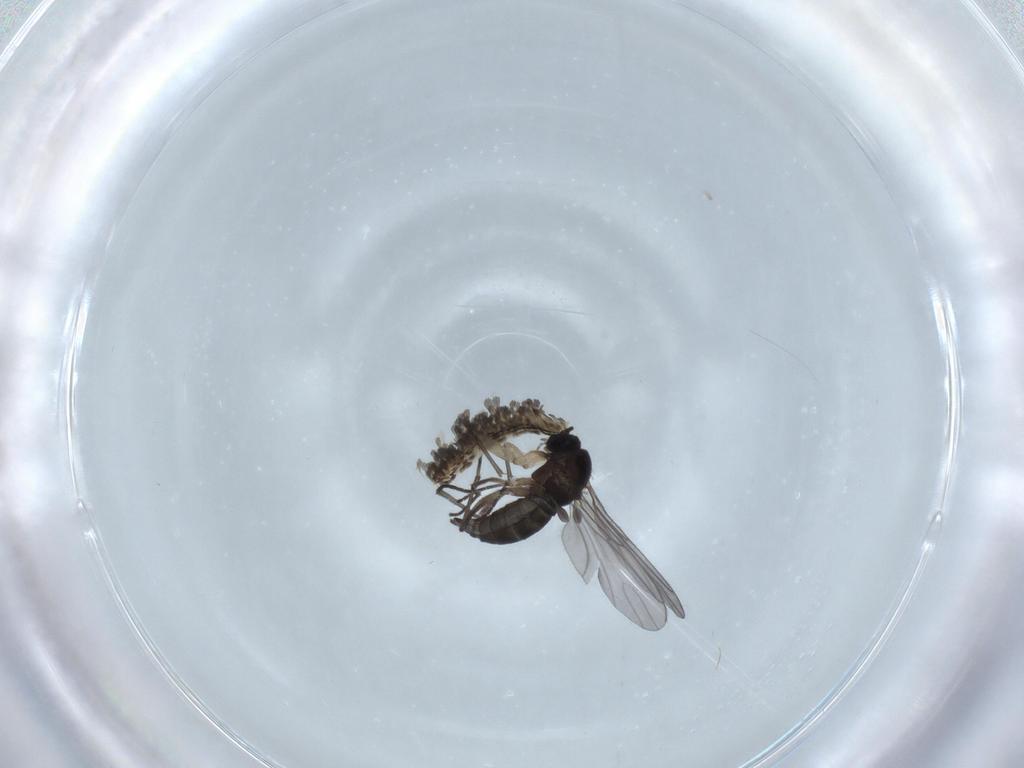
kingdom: Animalia
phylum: Arthropoda
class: Insecta
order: Diptera
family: Sciaridae
